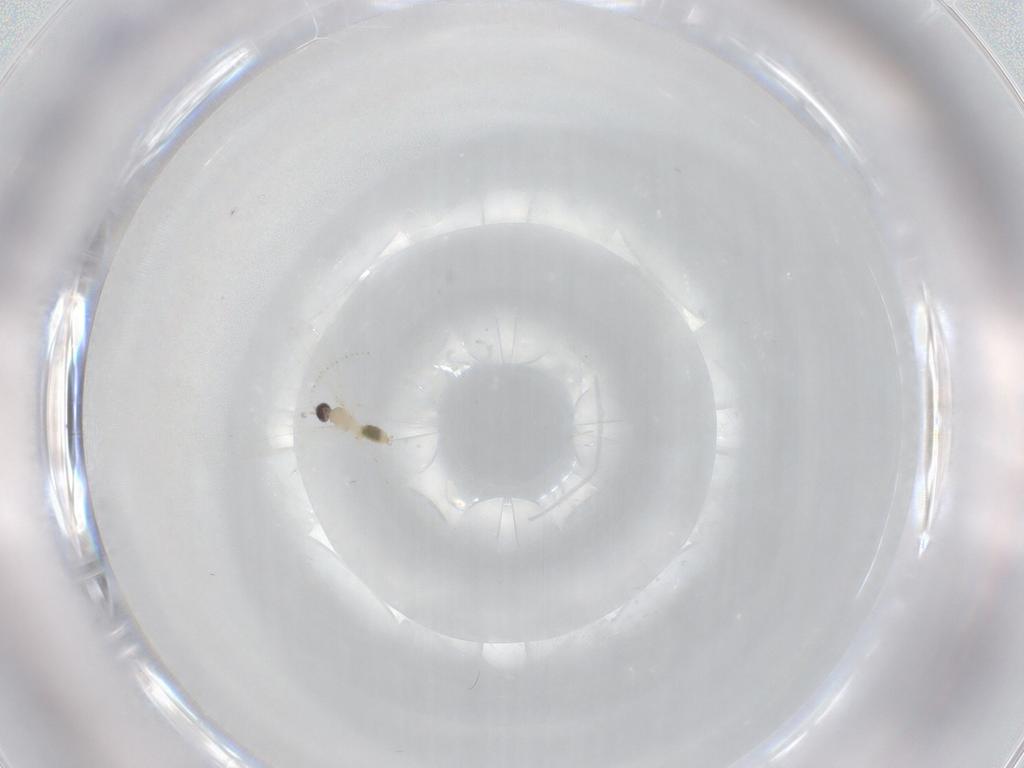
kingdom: Animalia
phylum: Arthropoda
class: Insecta
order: Diptera
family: Cecidomyiidae
